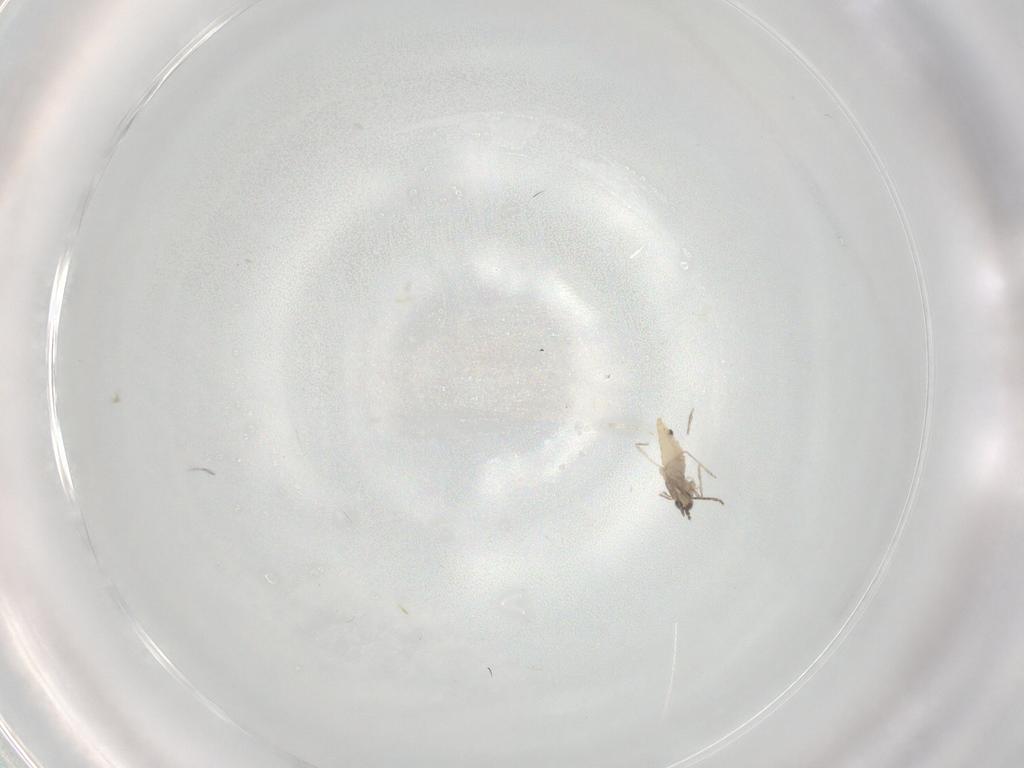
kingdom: Animalia
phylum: Arthropoda
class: Insecta
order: Diptera
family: Cecidomyiidae
